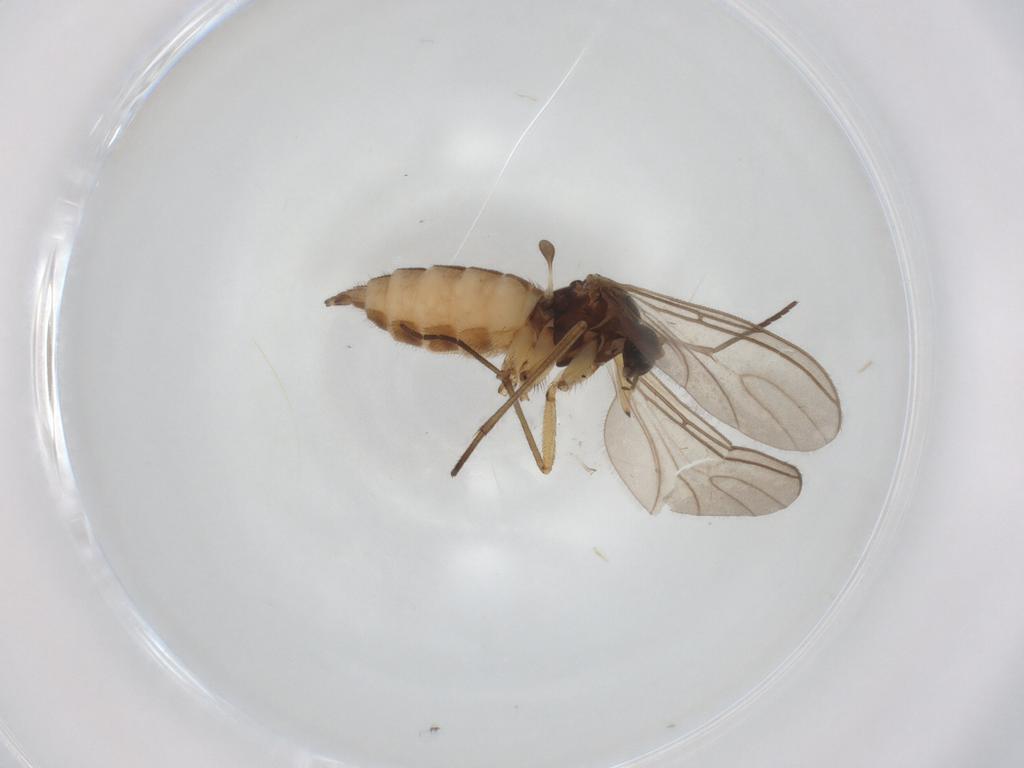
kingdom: Animalia
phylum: Arthropoda
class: Insecta
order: Diptera
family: Sciaridae
